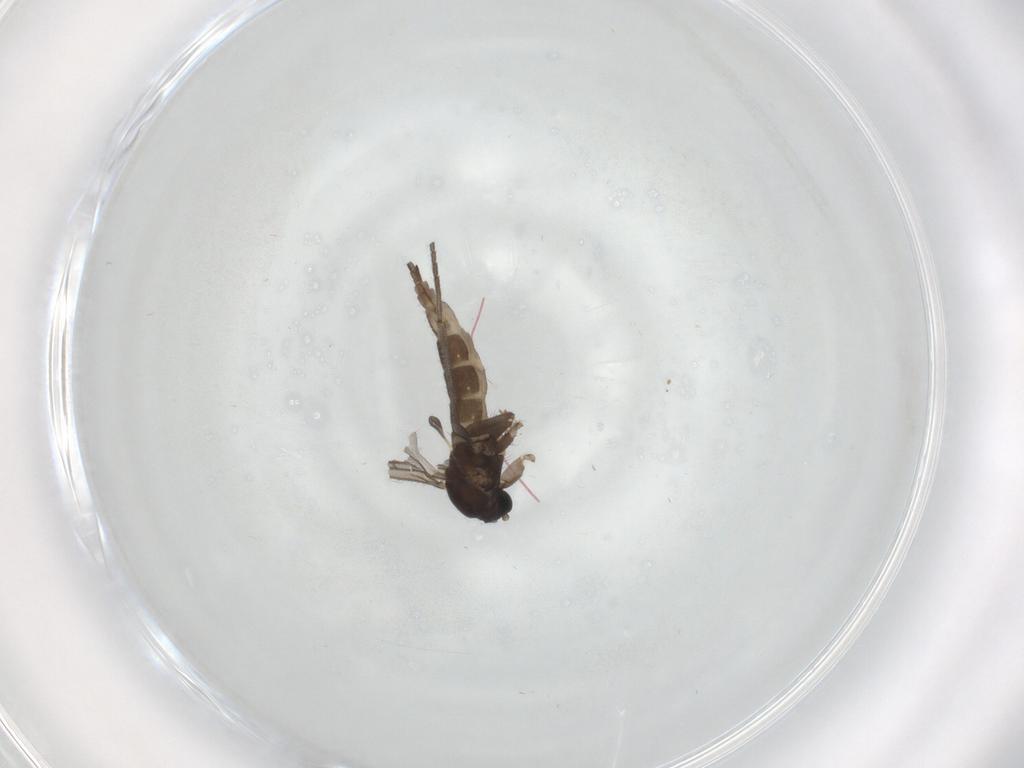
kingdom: Animalia
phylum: Arthropoda
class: Insecta
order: Diptera
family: Sciaridae
